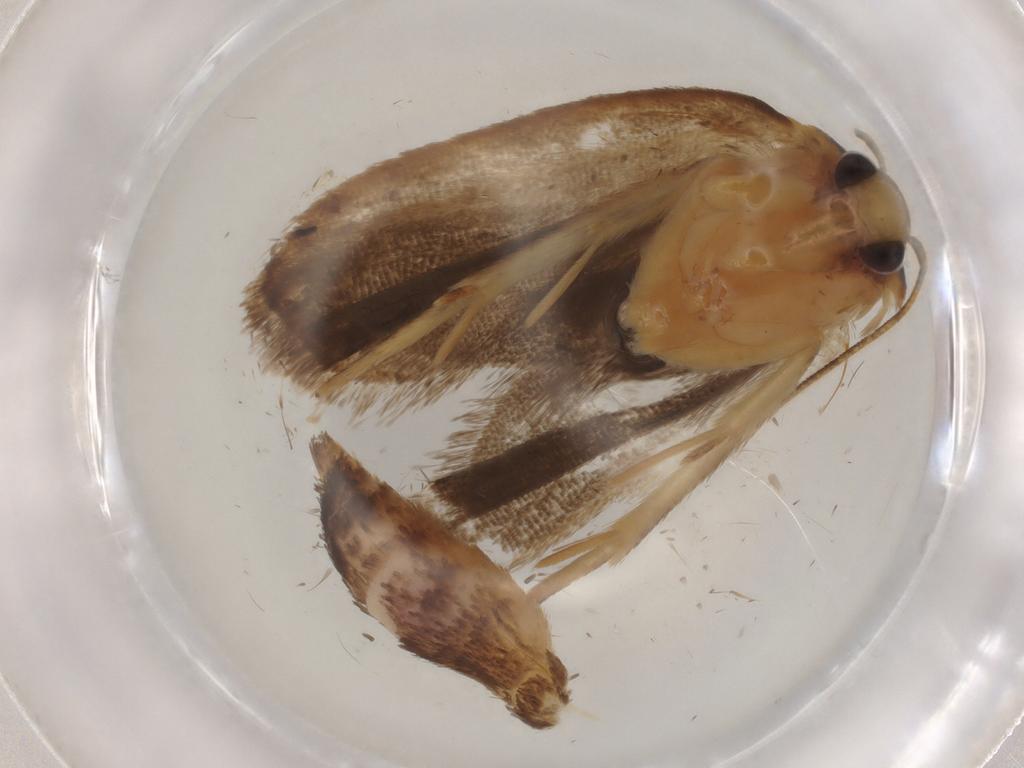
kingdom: Animalia
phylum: Arthropoda
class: Insecta
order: Lepidoptera
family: Depressariidae
